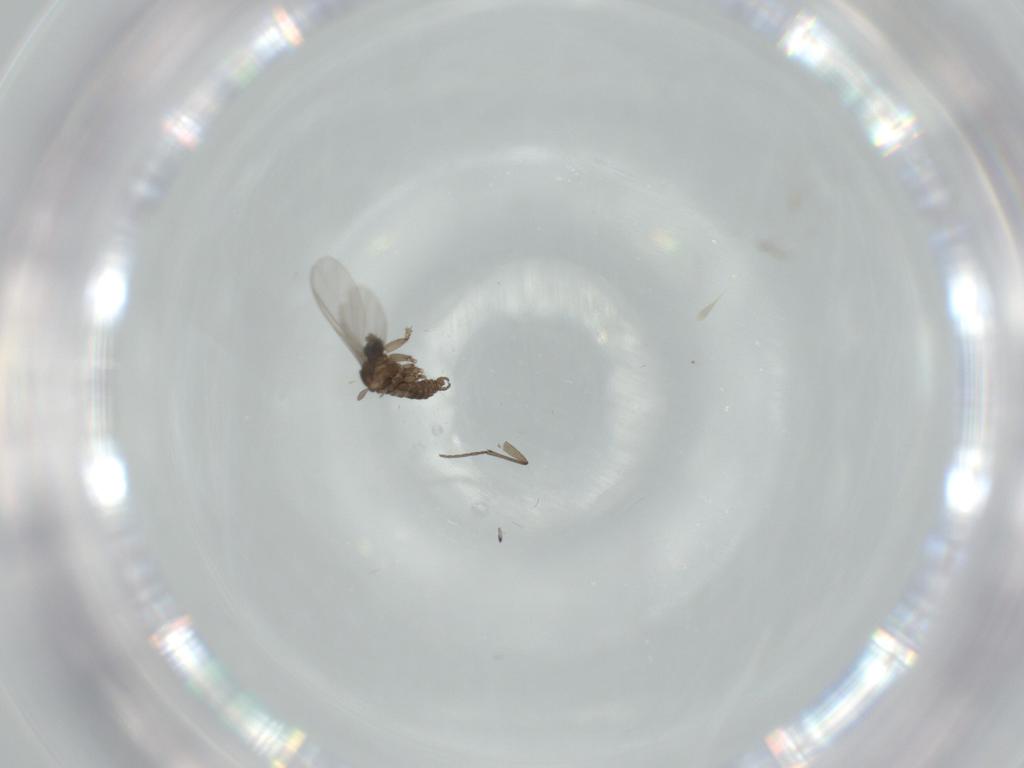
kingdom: Animalia
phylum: Arthropoda
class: Insecta
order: Diptera
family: Sciaridae
